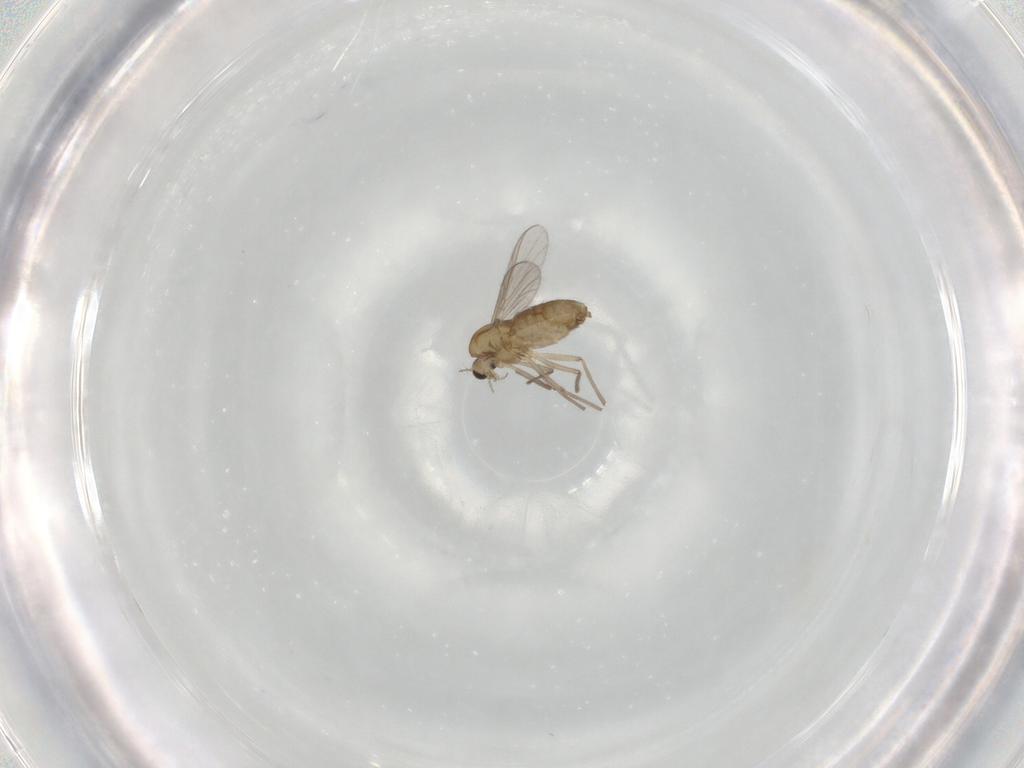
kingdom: Animalia
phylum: Arthropoda
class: Insecta
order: Diptera
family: Chironomidae
